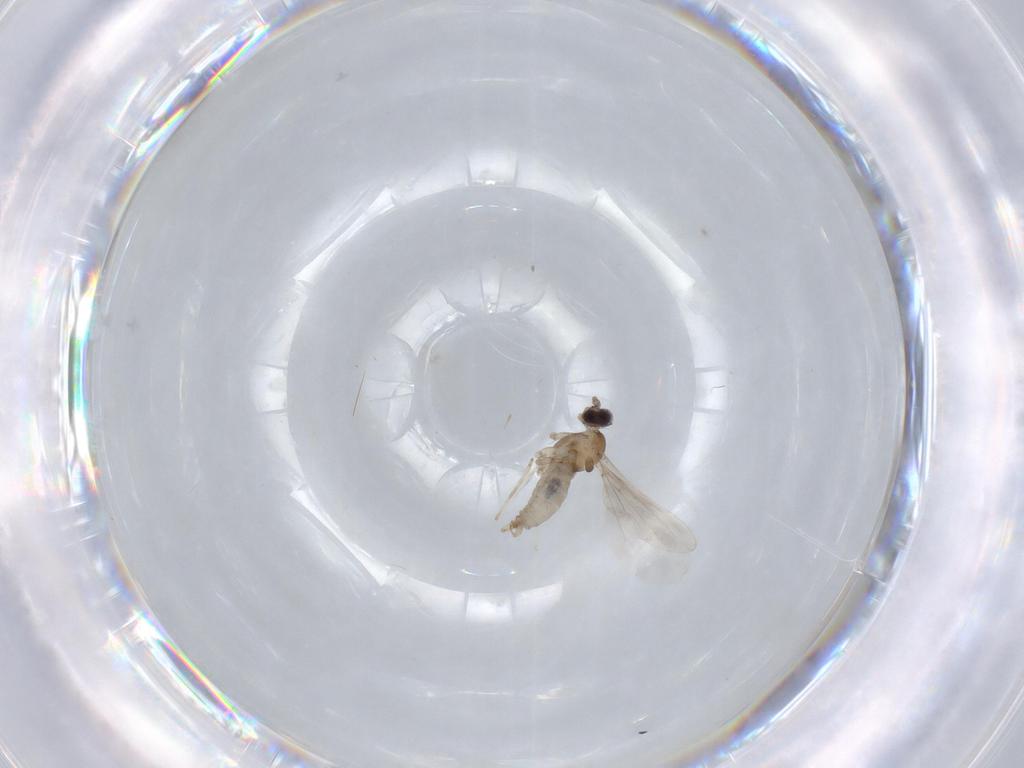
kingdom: Animalia
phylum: Arthropoda
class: Insecta
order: Diptera
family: Cecidomyiidae
